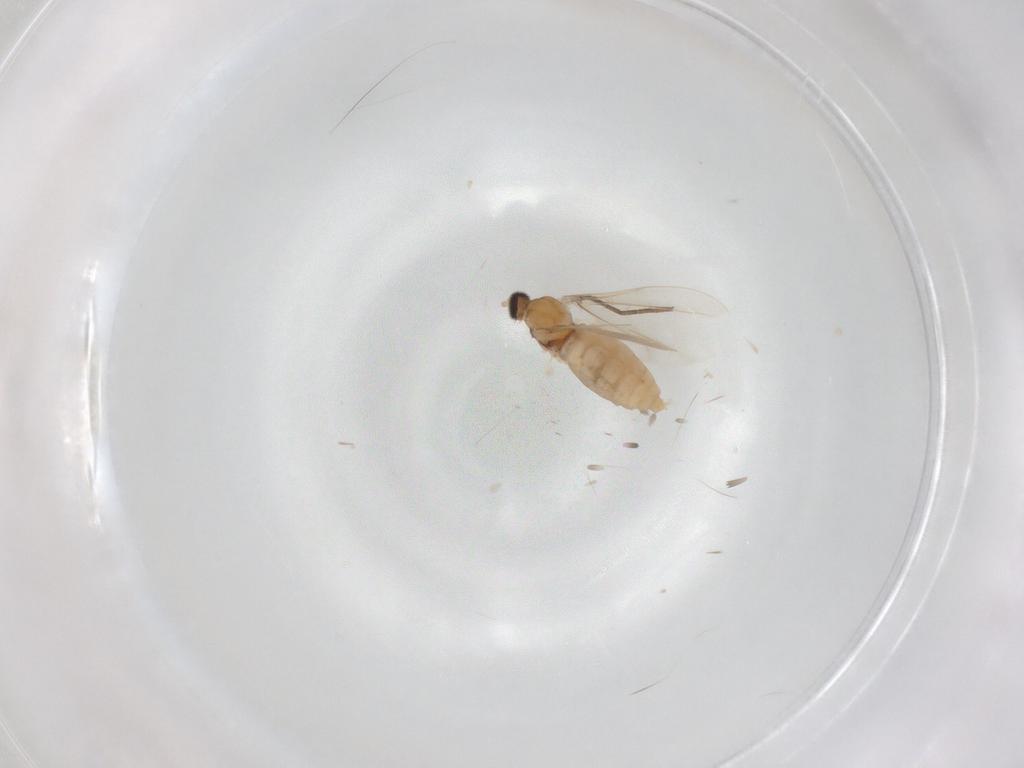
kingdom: Animalia
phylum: Arthropoda
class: Insecta
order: Diptera
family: Cecidomyiidae
